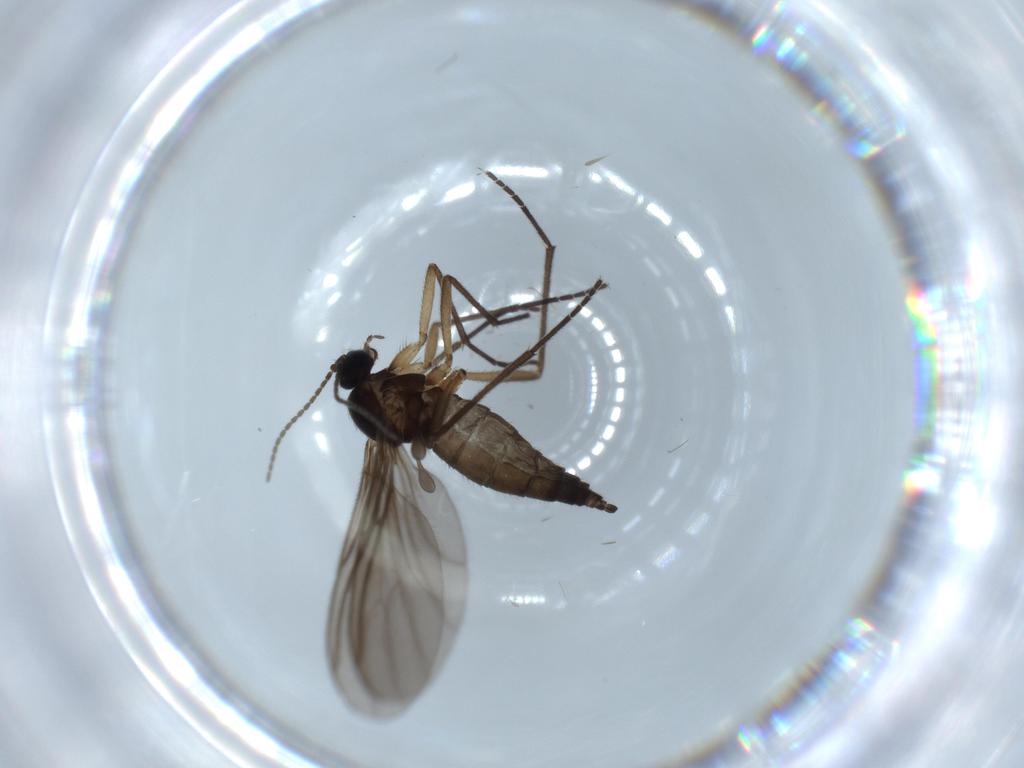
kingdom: Animalia
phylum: Arthropoda
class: Insecta
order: Diptera
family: Sciaridae
